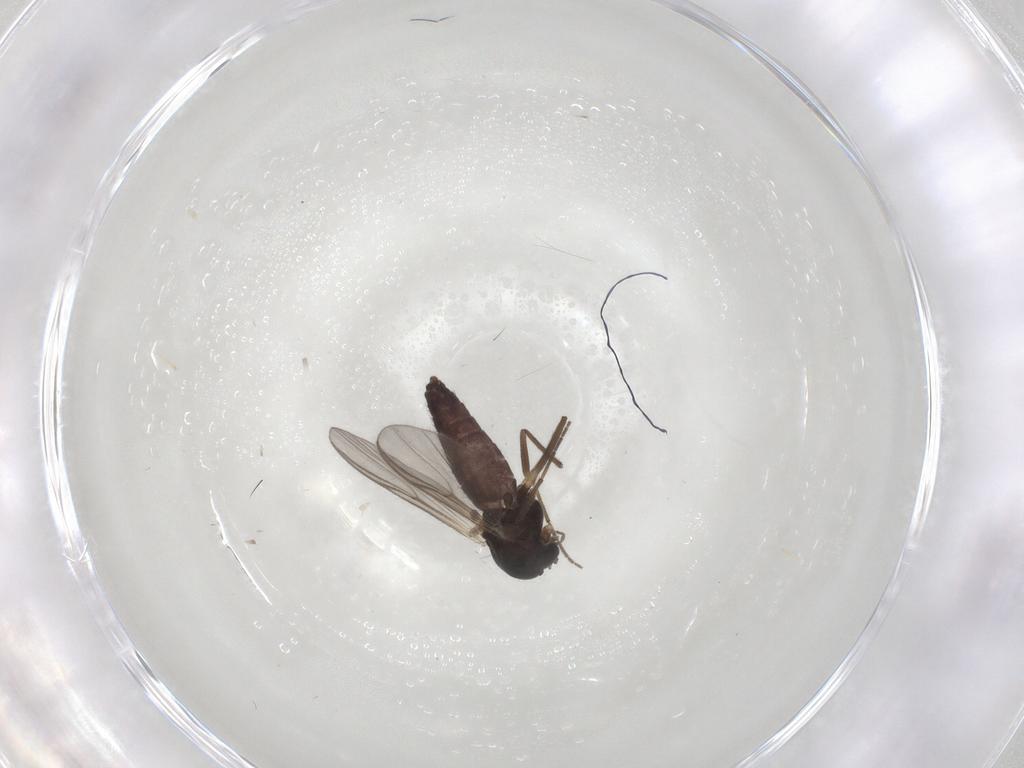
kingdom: Animalia
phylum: Arthropoda
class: Insecta
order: Diptera
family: Chironomidae
